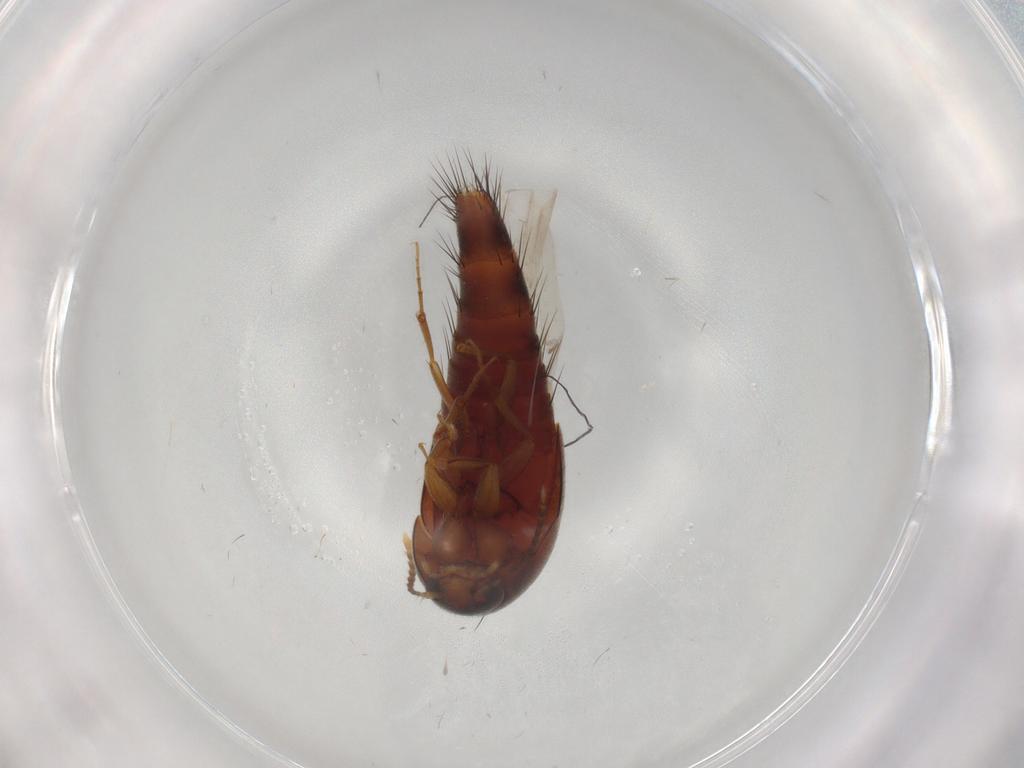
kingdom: Animalia
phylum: Arthropoda
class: Insecta
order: Coleoptera
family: Staphylinidae
